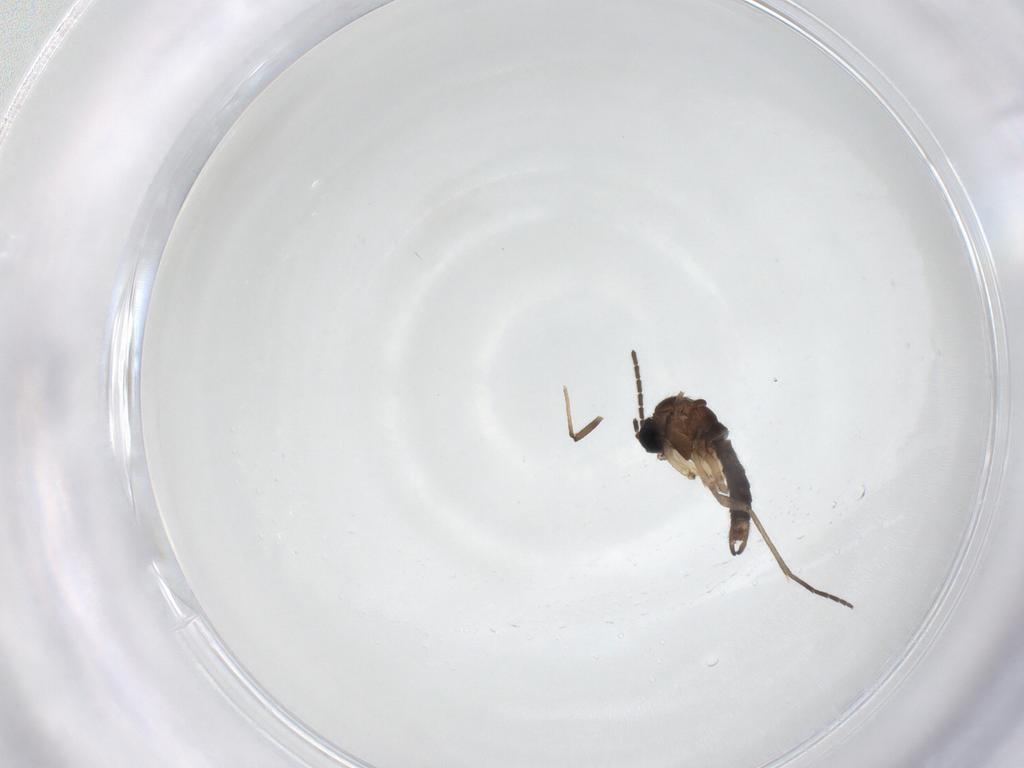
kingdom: Animalia
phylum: Arthropoda
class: Insecta
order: Diptera
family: Sciaridae
